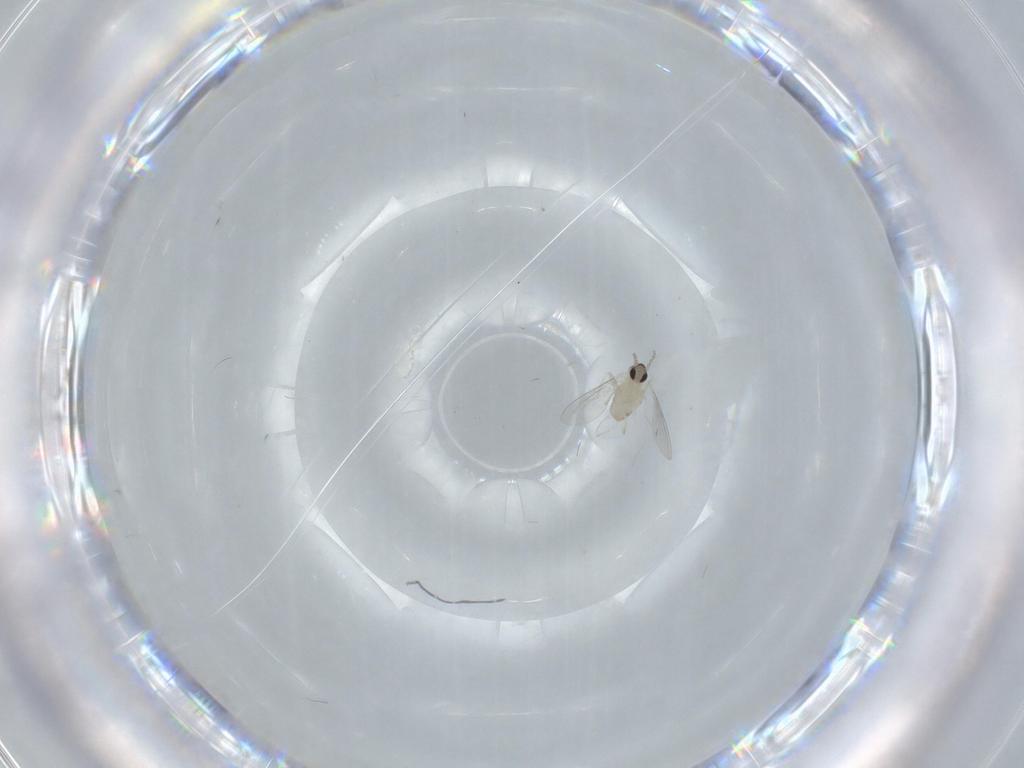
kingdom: Animalia
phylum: Arthropoda
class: Insecta
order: Diptera
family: Cecidomyiidae
